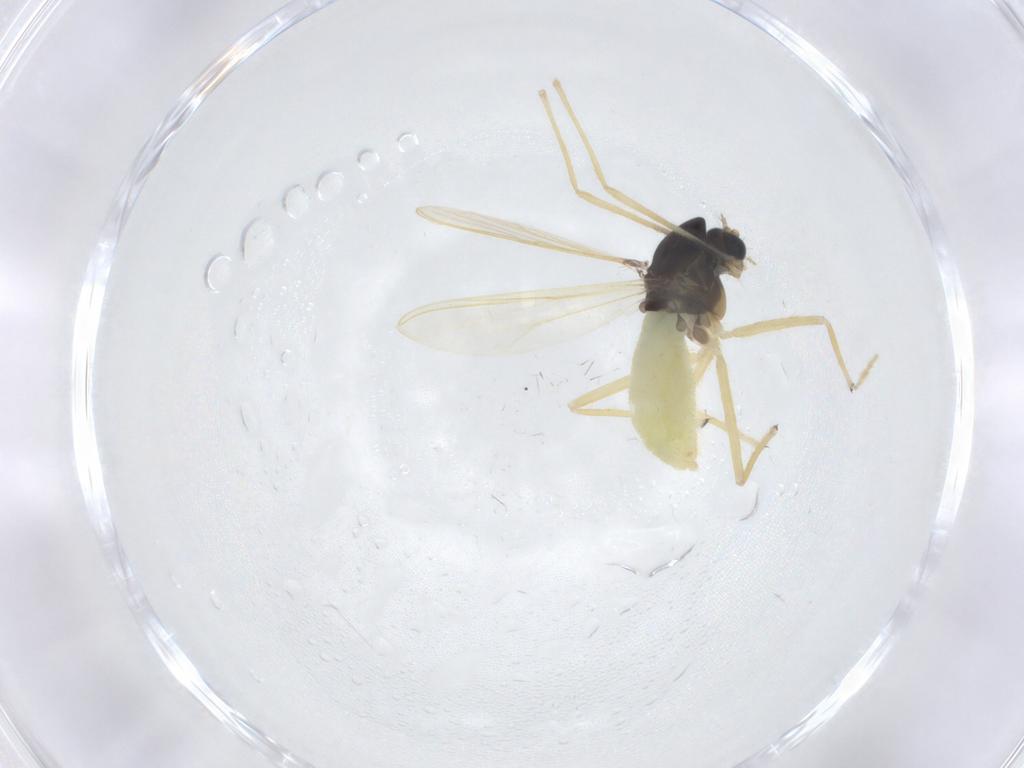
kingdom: Animalia
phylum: Arthropoda
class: Insecta
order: Diptera
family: Chironomidae
